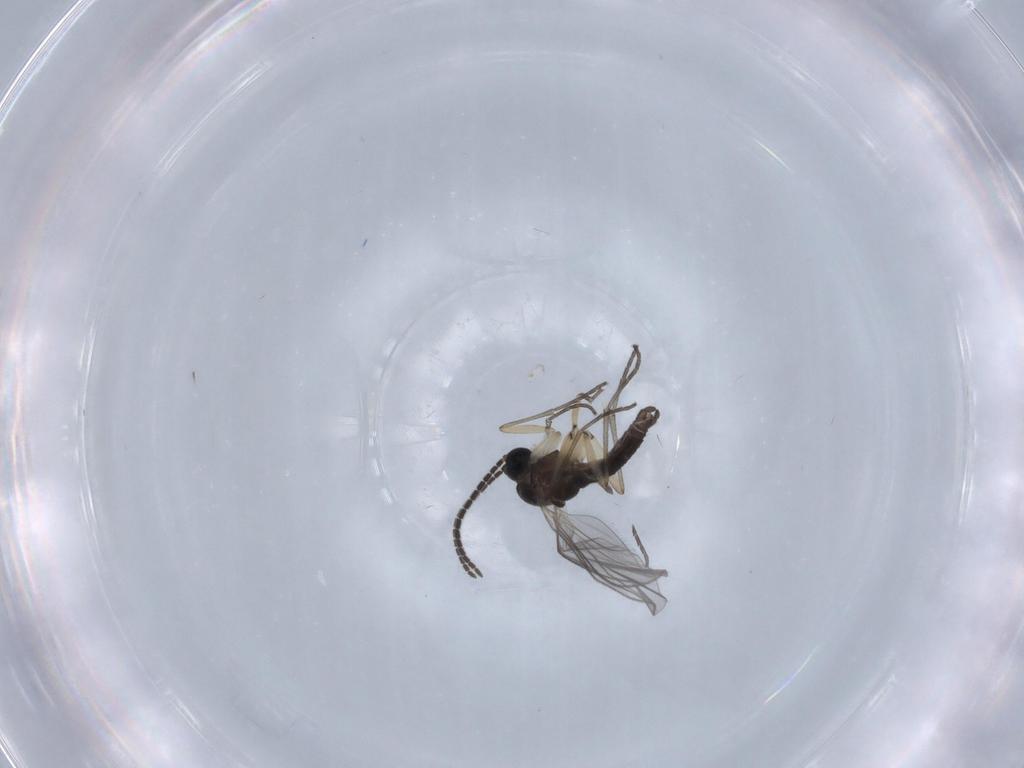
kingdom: Animalia
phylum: Arthropoda
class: Insecta
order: Diptera
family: Sciaridae
